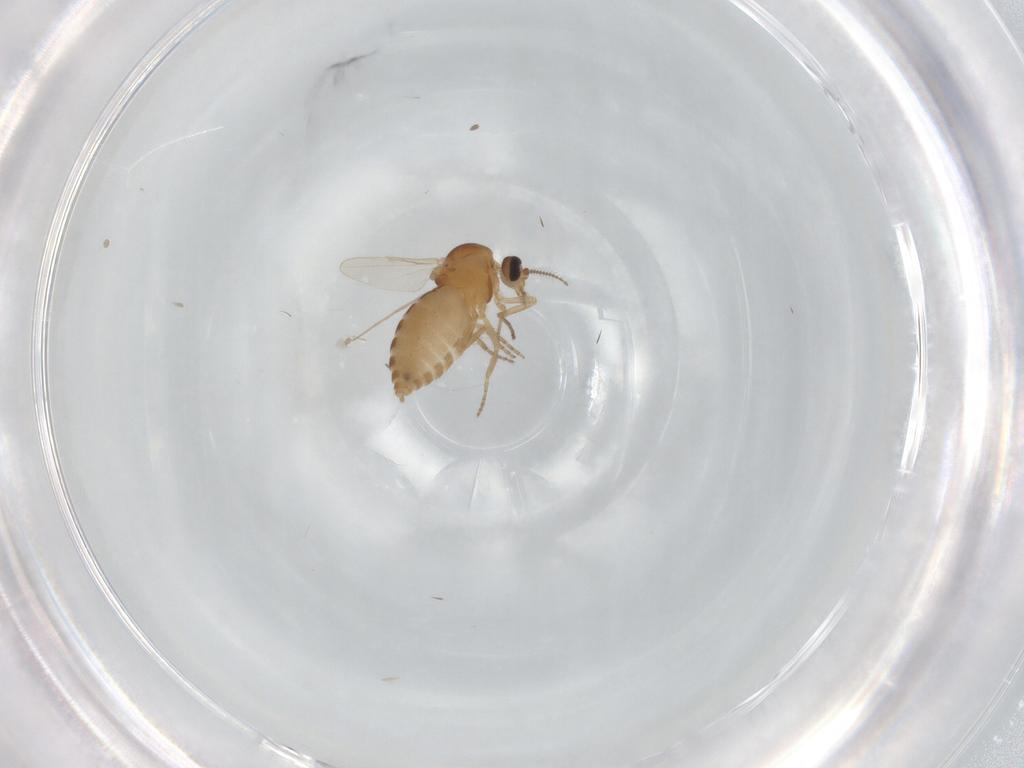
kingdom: Animalia
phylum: Arthropoda
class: Insecta
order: Diptera
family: Ceratopogonidae
